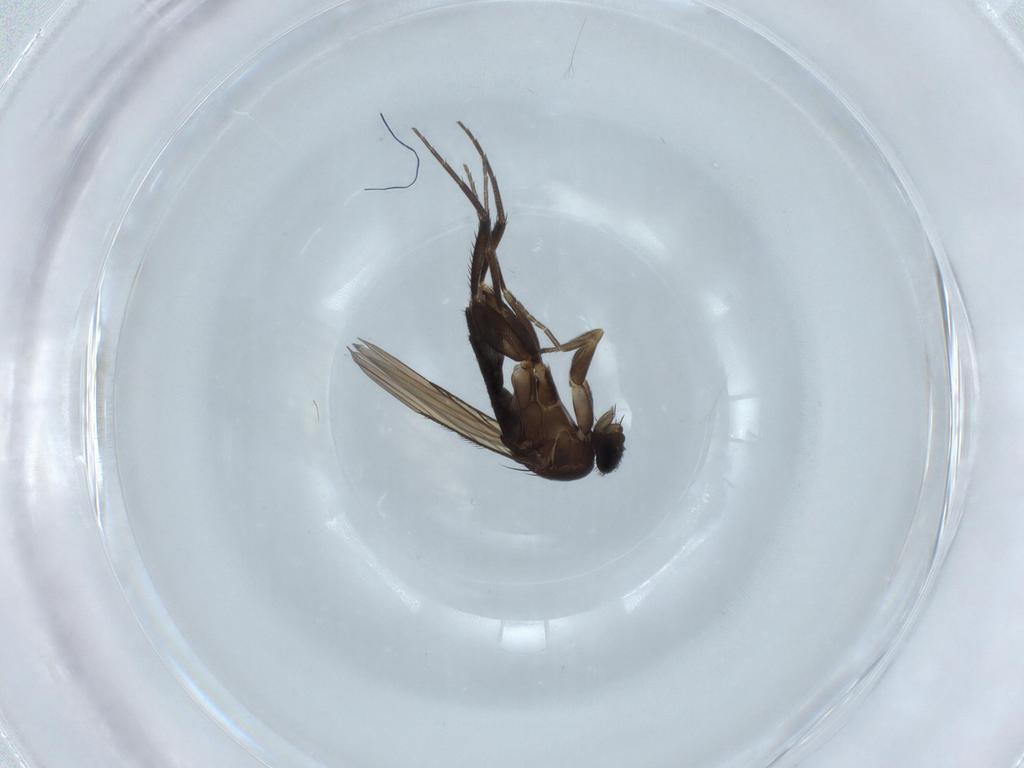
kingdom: Animalia
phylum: Arthropoda
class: Insecta
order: Diptera
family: Phoridae
